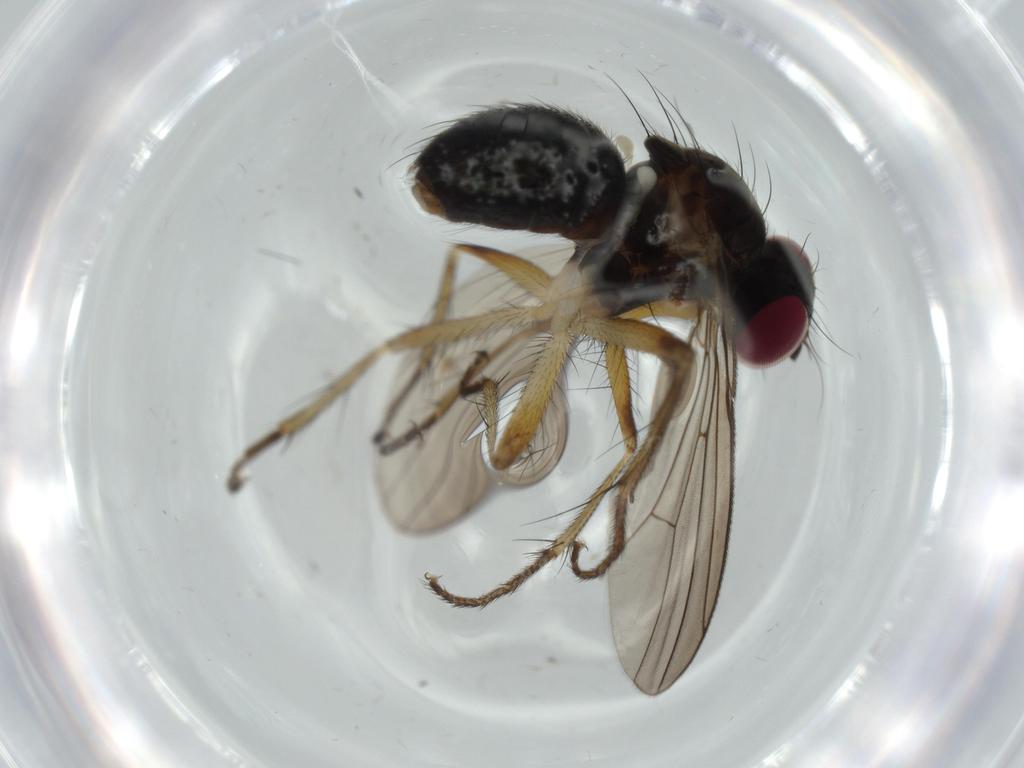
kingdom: Animalia
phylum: Arthropoda
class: Insecta
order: Diptera
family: Muscidae
